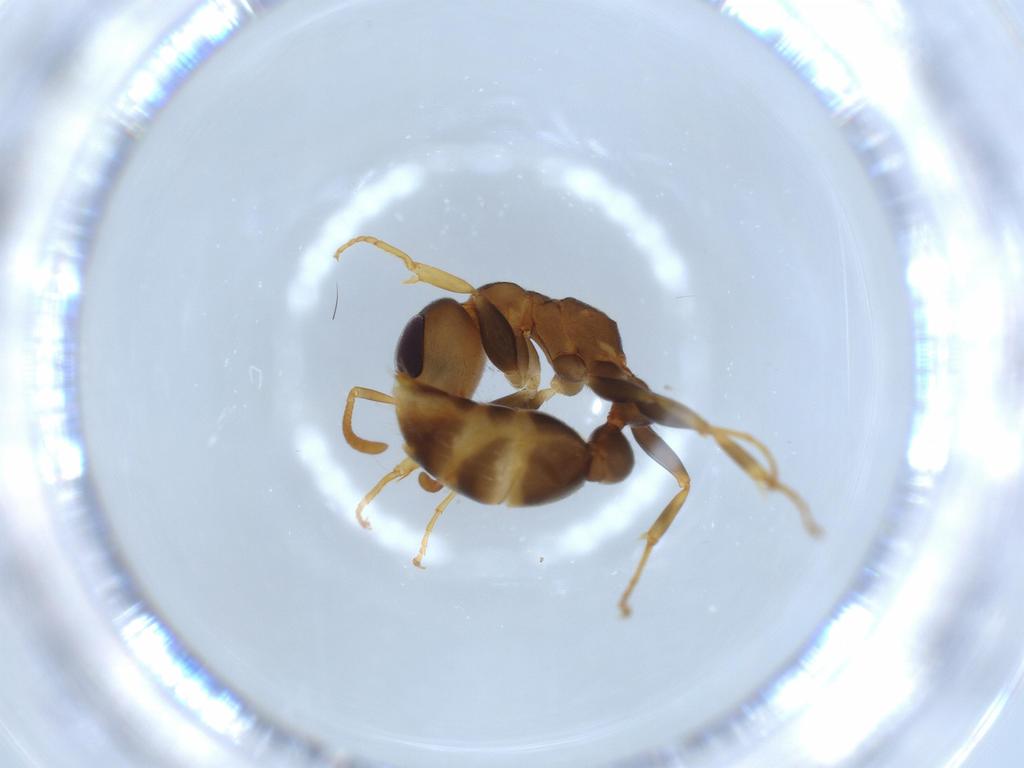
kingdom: Animalia
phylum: Arthropoda
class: Insecta
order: Hymenoptera
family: Formicidae
